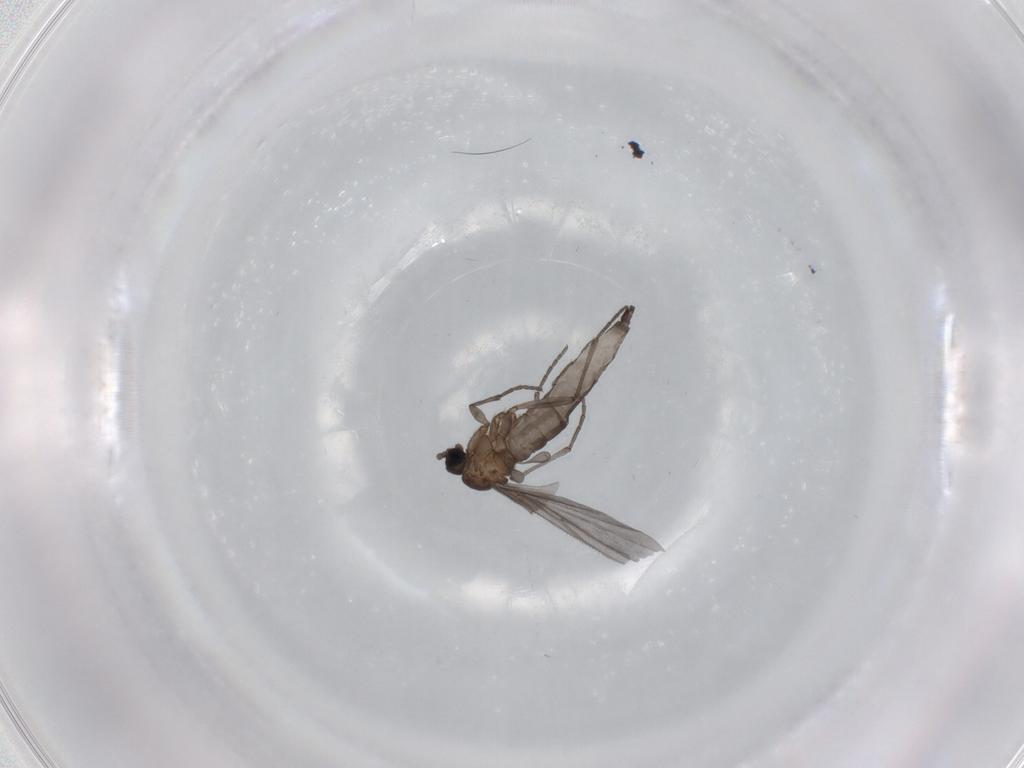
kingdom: Animalia
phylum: Arthropoda
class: Insecta
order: Diptera
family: Sciaridae
